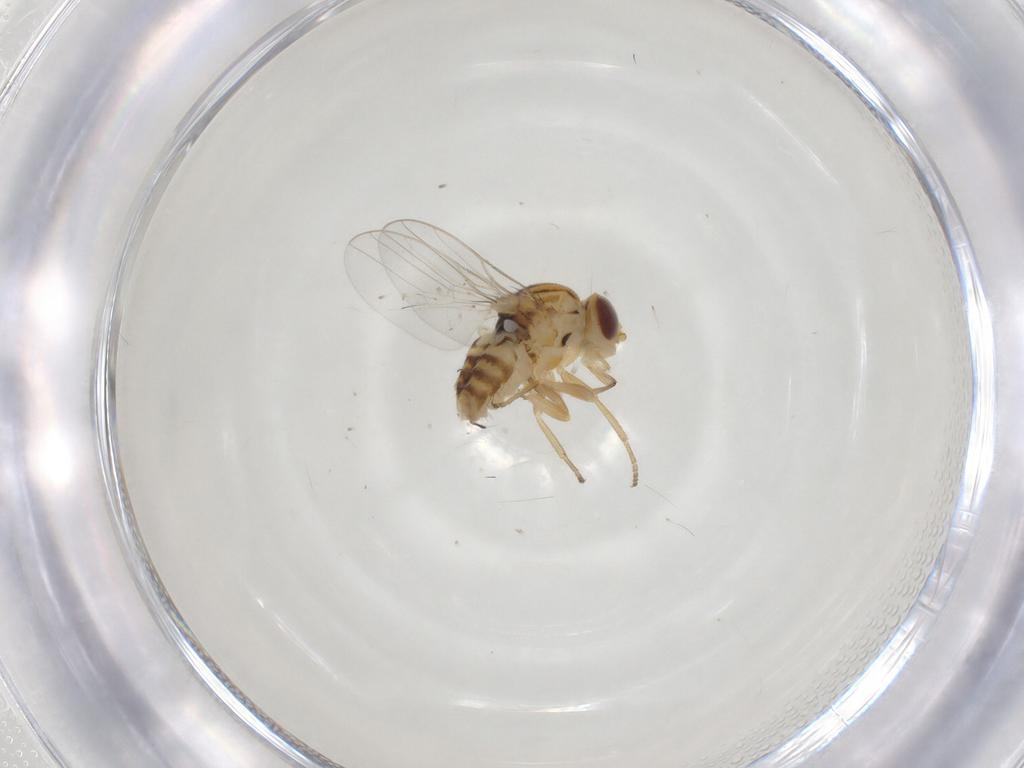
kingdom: Animalia
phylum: Arthropoda
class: Insecta
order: Diptera
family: Chloropidae
